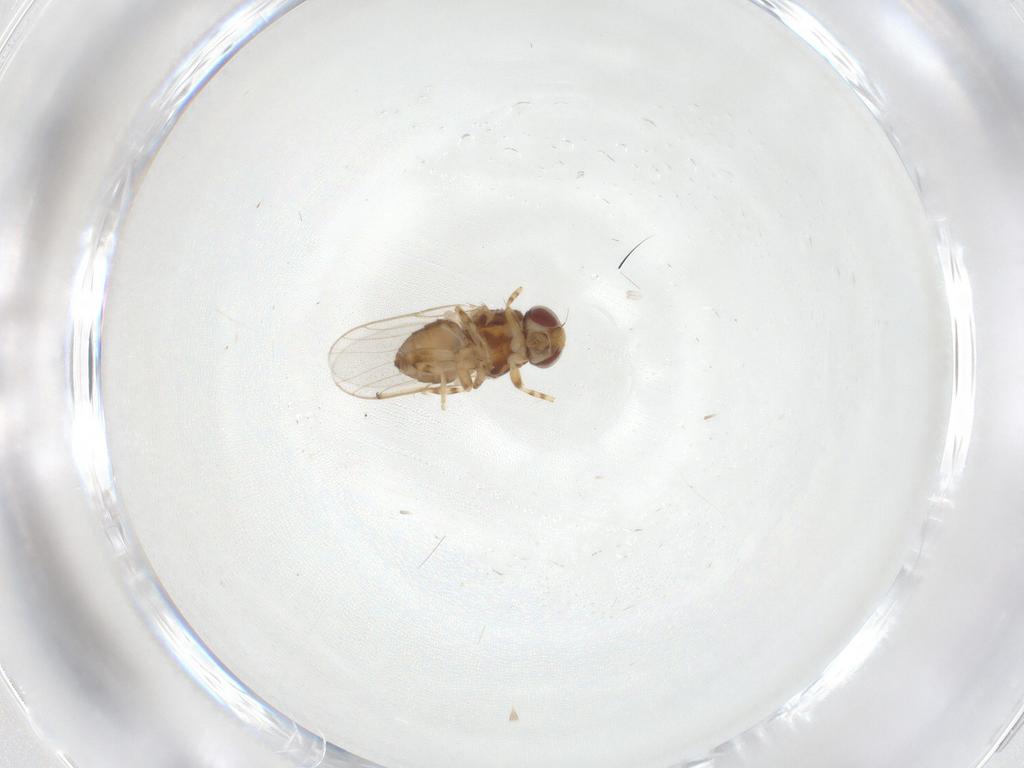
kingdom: Animalia
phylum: Arthropoda
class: Insecta
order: Diptera
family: Chloropidae
